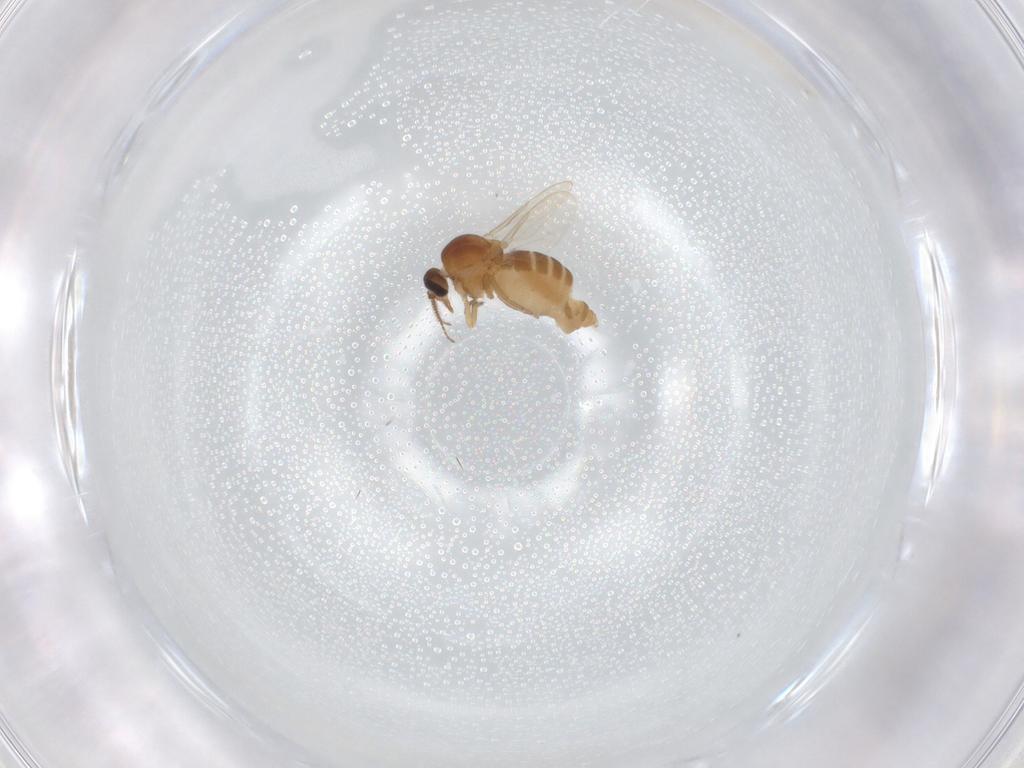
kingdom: Animalia
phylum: Arthropoda
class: Insecta
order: Diptera
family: Ceratopogonidae
